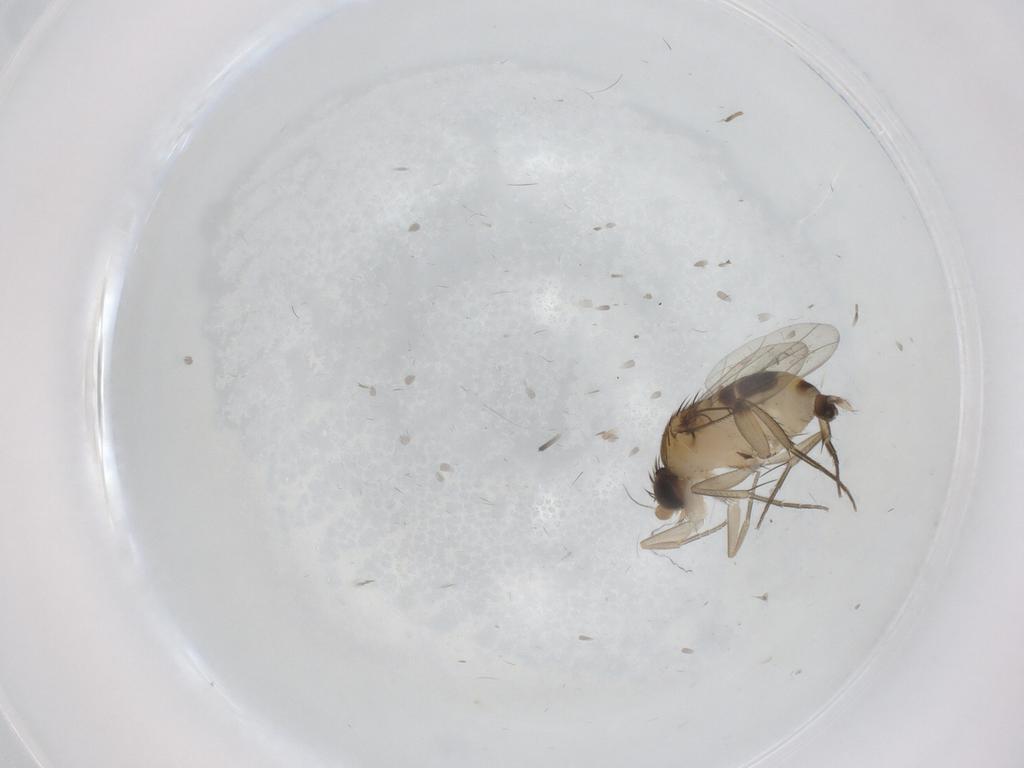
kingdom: Animalia
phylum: Arthropoda
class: Insecta
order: Diptera
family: Phoridae
